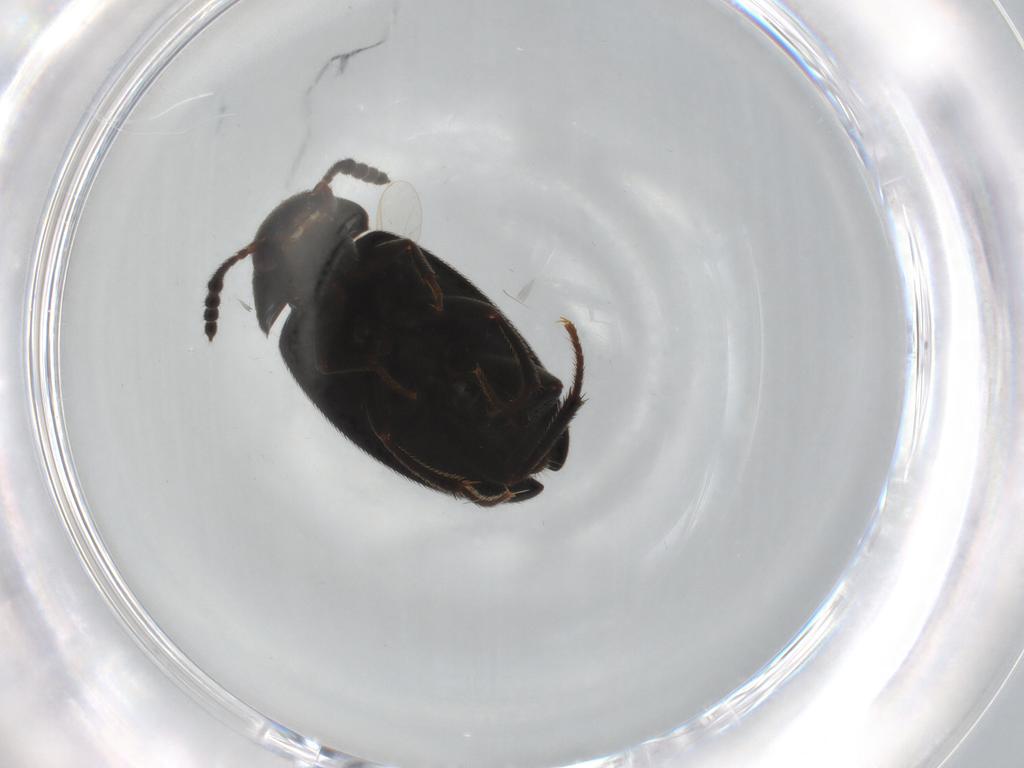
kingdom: Animalia
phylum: Arthropoda
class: Insecta
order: Coleoptera
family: Leiodidae
